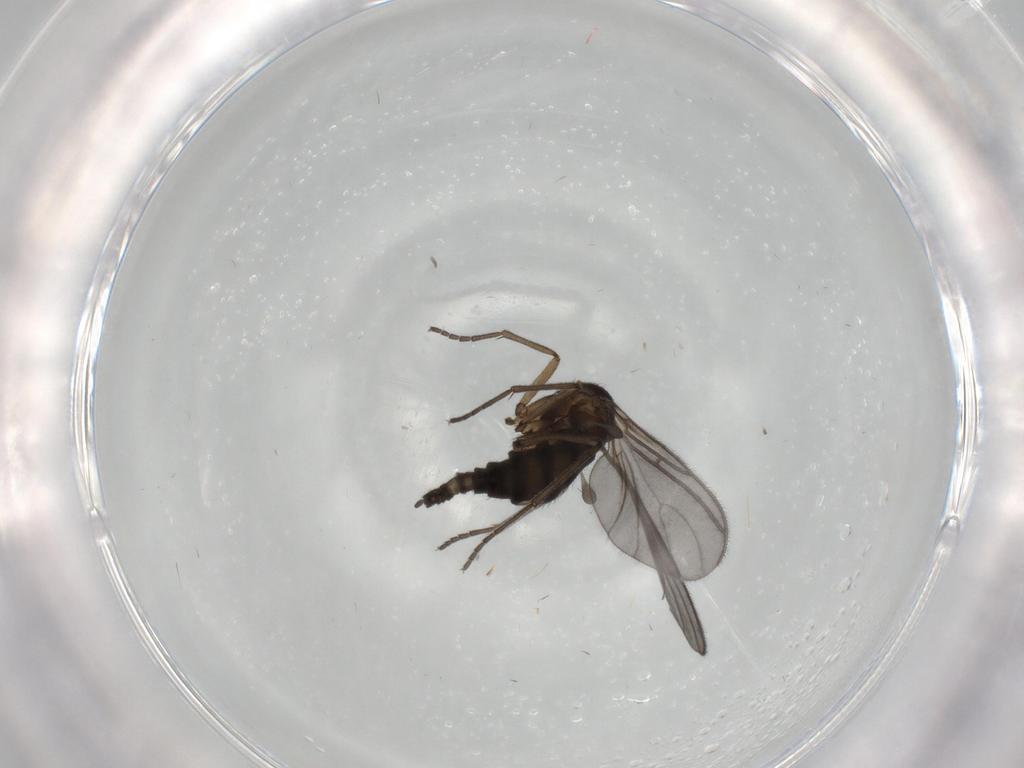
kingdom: Animalia
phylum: Arthropoda
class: Insecta
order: Diptera
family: Sciaridae
